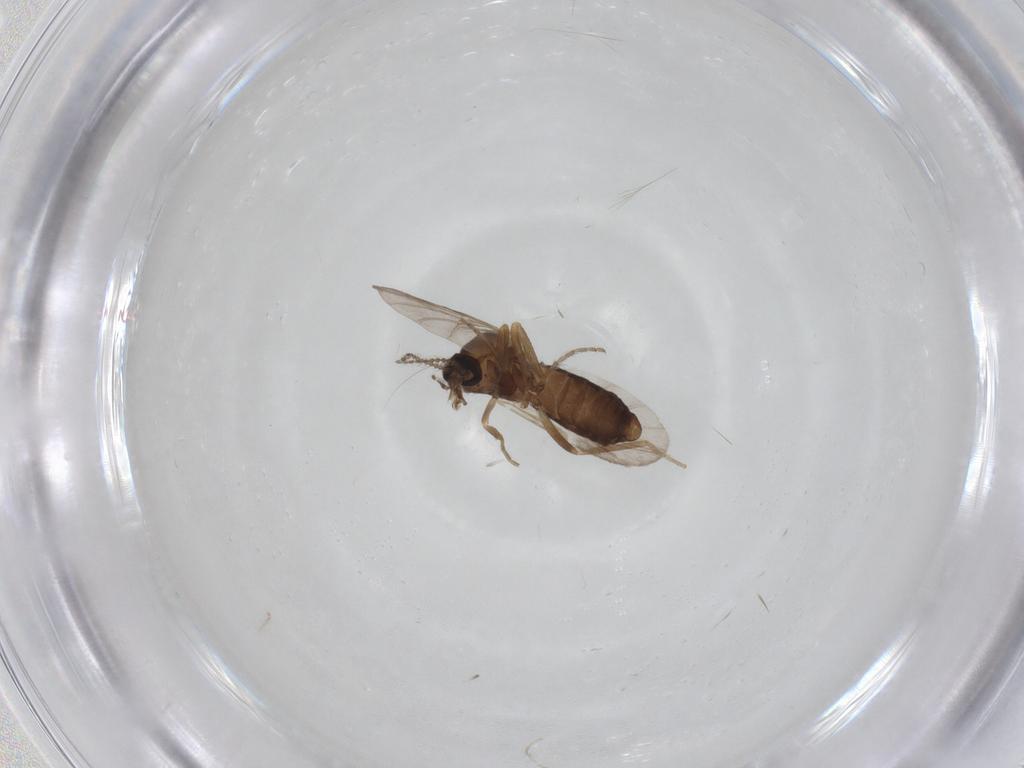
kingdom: Animalia
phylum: Arthropoda
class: Insecta
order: Diptera
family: Ceratopogonidae
